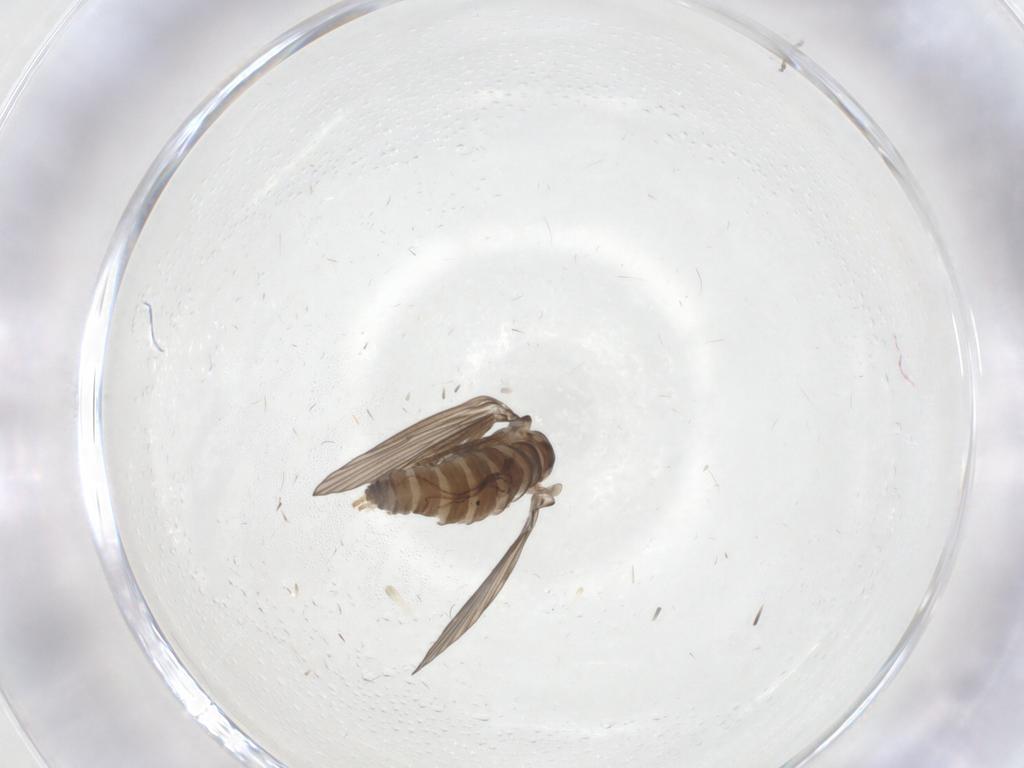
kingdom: Animalia
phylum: Arthropoda
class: Insecta
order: Diptera
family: Psychodidae
